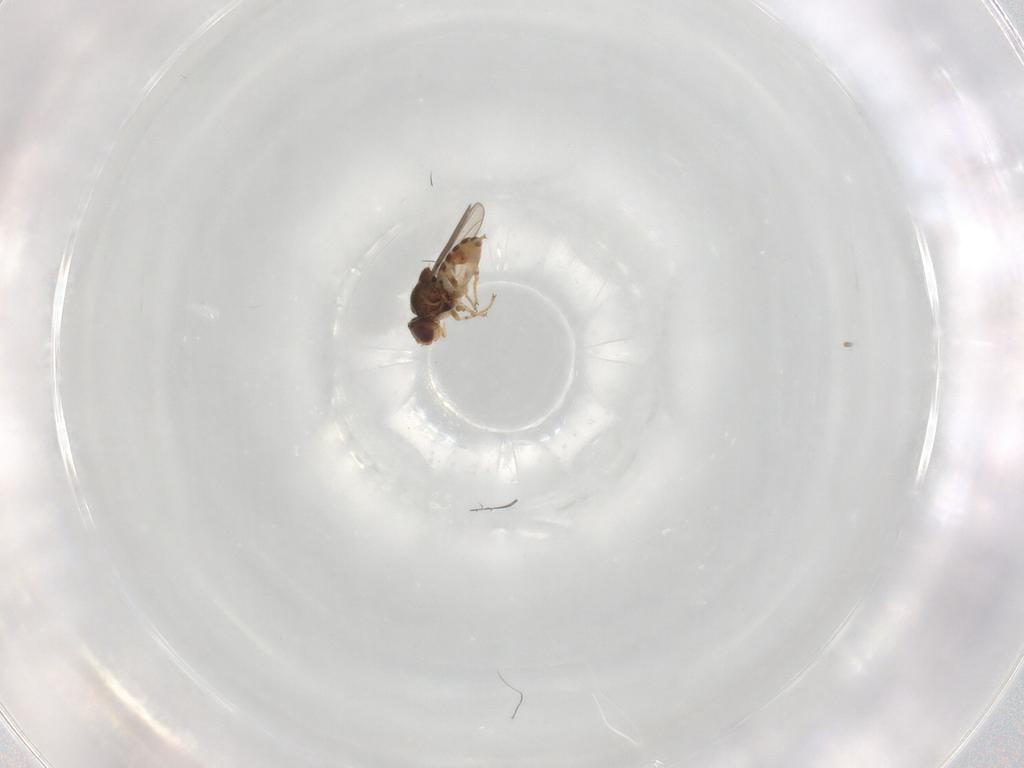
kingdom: Animalia
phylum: Arthropoda
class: Insecta
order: Diptera
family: Chloropidae
